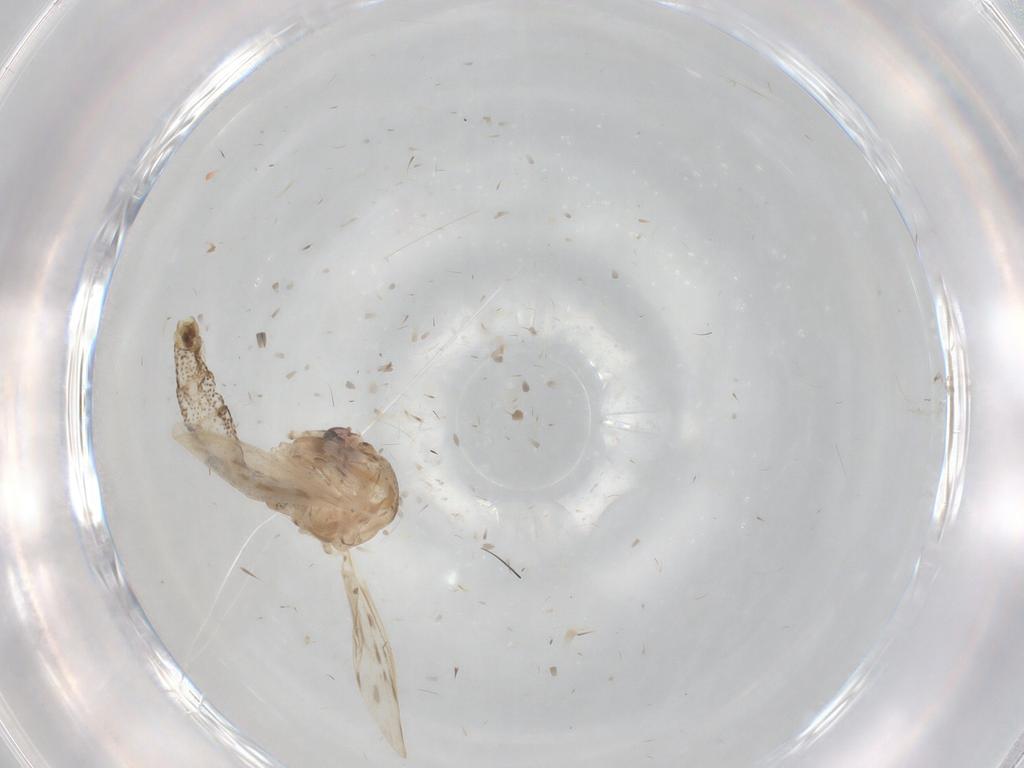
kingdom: Animalia
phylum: Arthropoda
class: Insecta
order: Diptera
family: Chaoboridae
